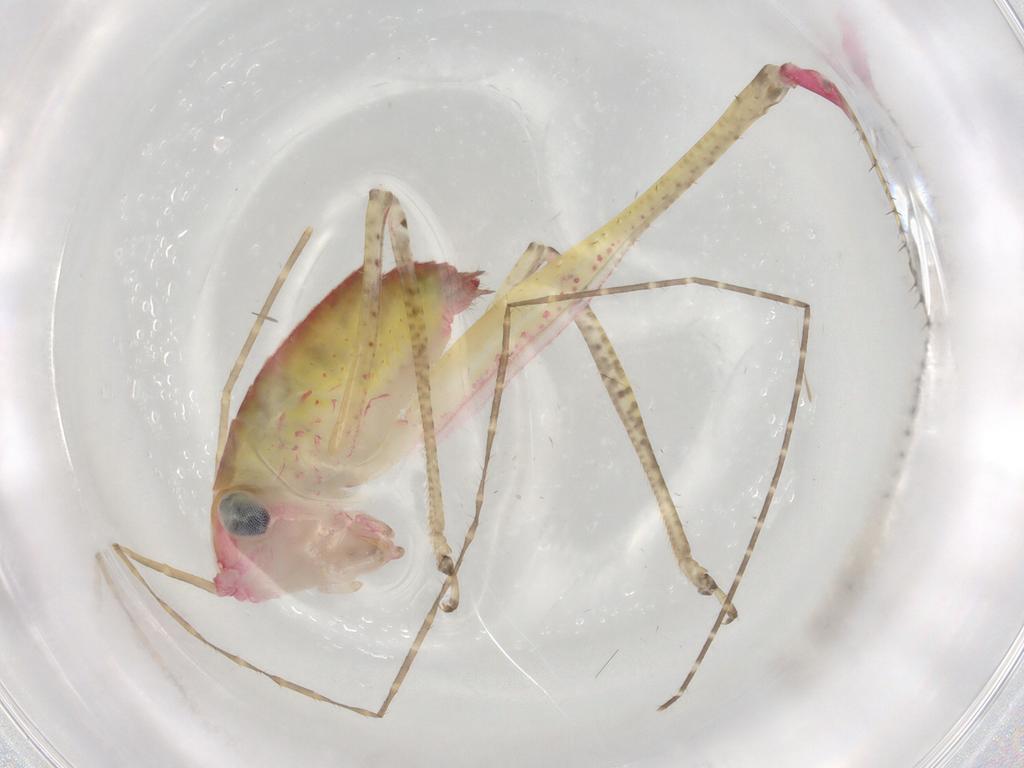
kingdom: Animalia
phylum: Arthropoda
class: Insecta
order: Orthoptera
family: Tettigoniidae
